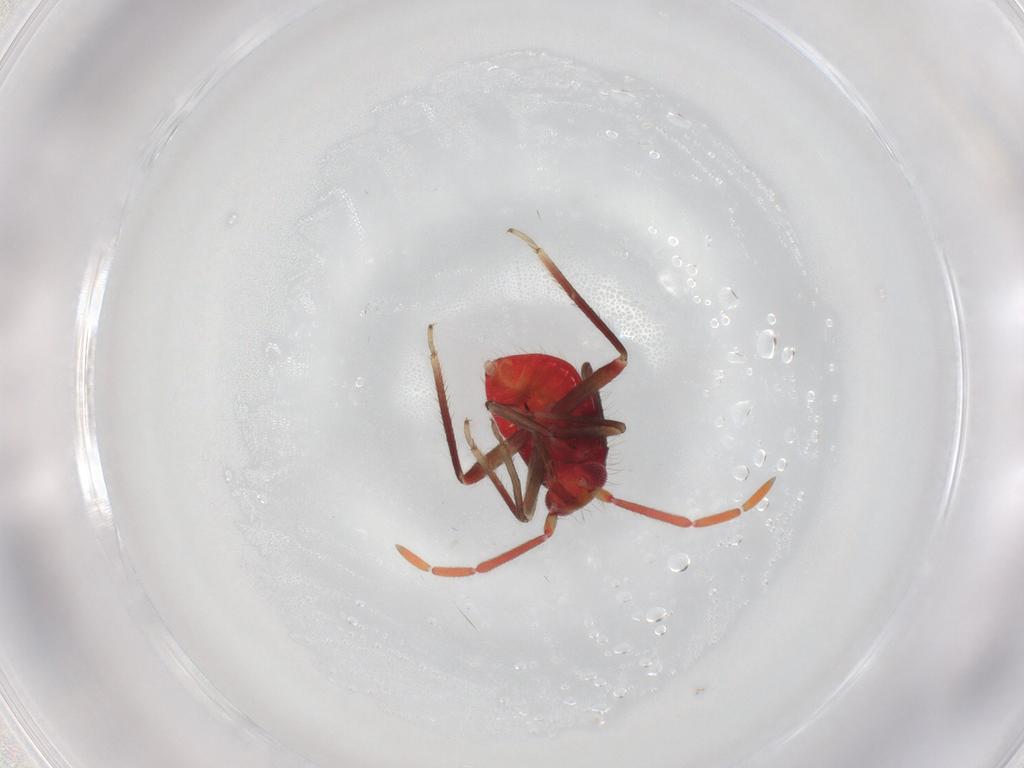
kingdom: Animalia
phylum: Arthropoda
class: Insecta
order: Hemiptera
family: Miridae
